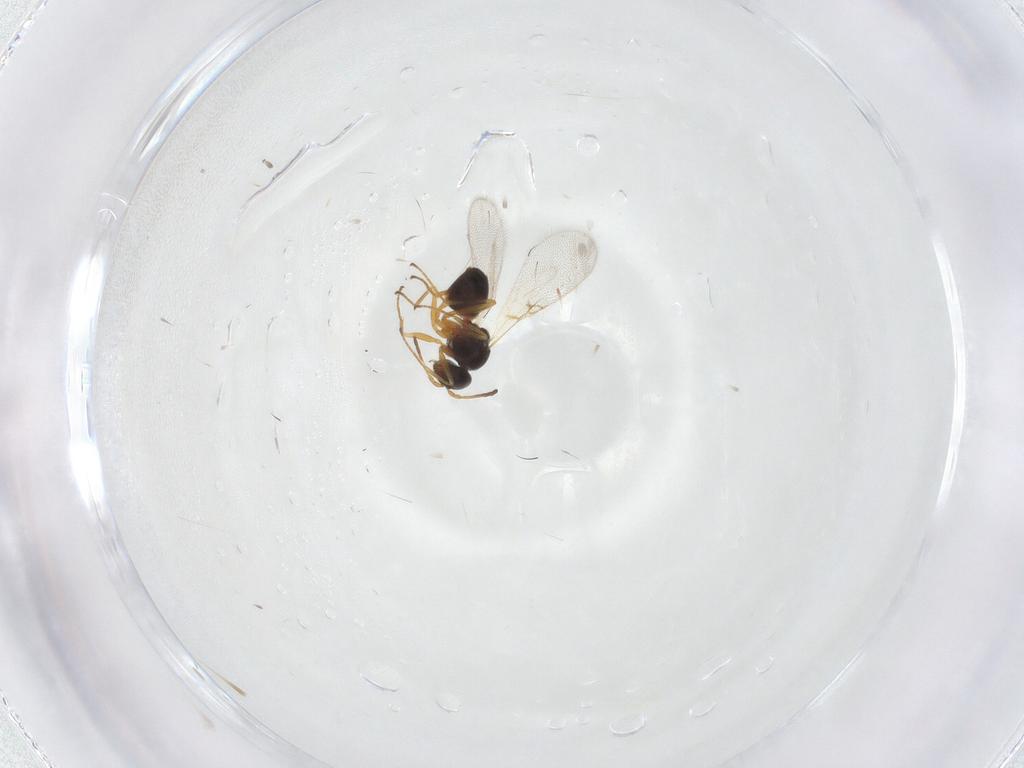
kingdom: Animalia
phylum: Arthropoda
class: Insecta
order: Hymenoptera
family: Figitidae
